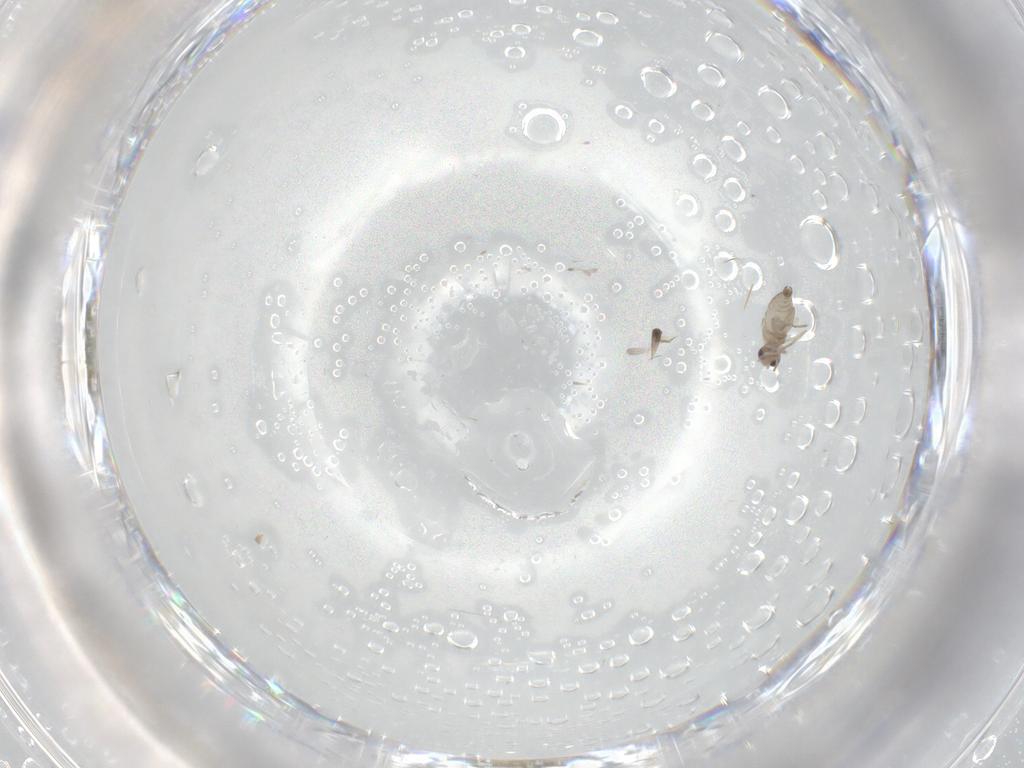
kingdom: Animalia
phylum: Arthropoda
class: Insecta
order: Diptera
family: Cecidomyiidae
